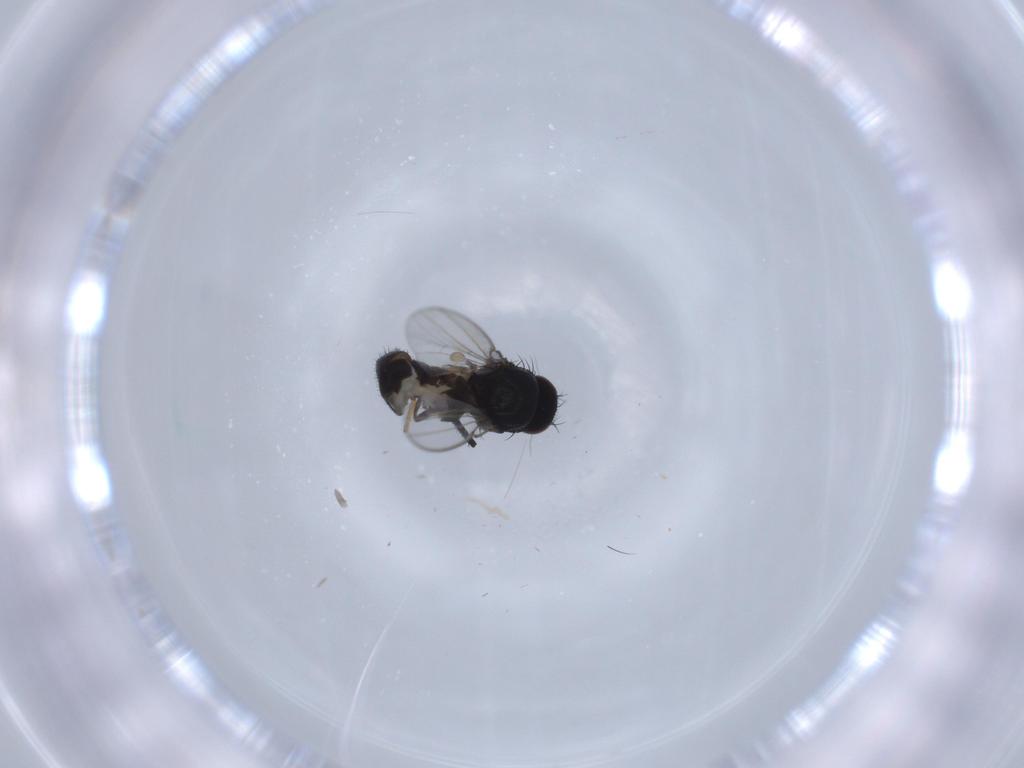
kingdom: Animalia
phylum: Arthropoda
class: Insecta
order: Diptera
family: Milichiidae
